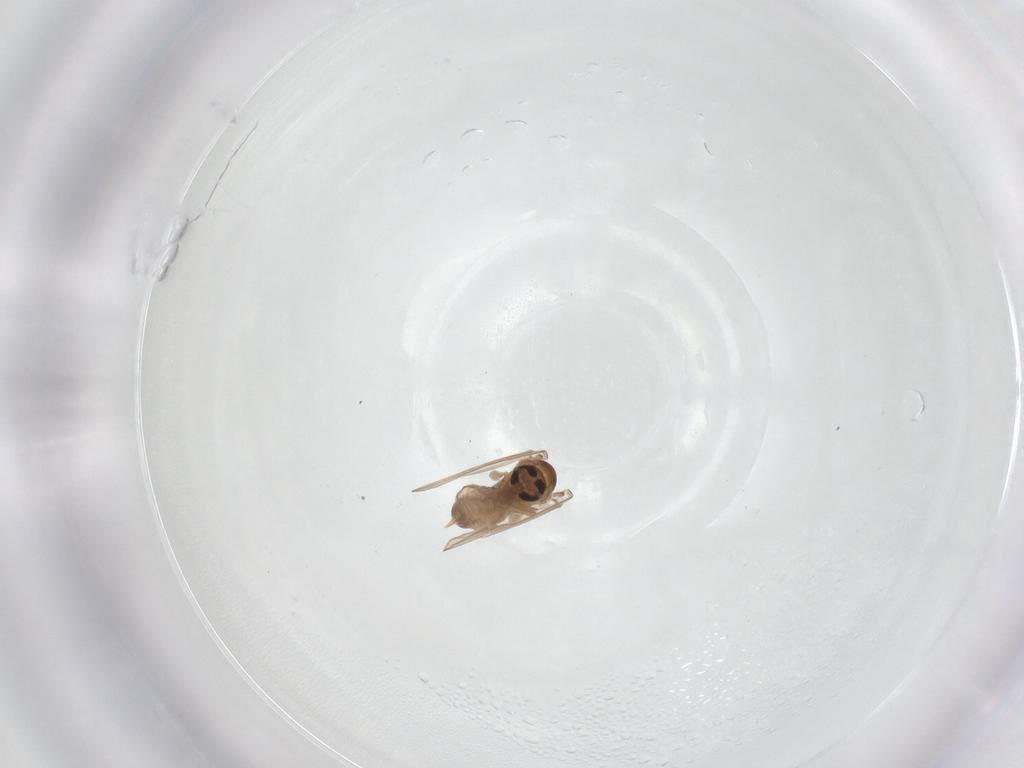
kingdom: Animalia
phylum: Arthropoda
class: Insecta
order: Diptera
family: Psychodidae
